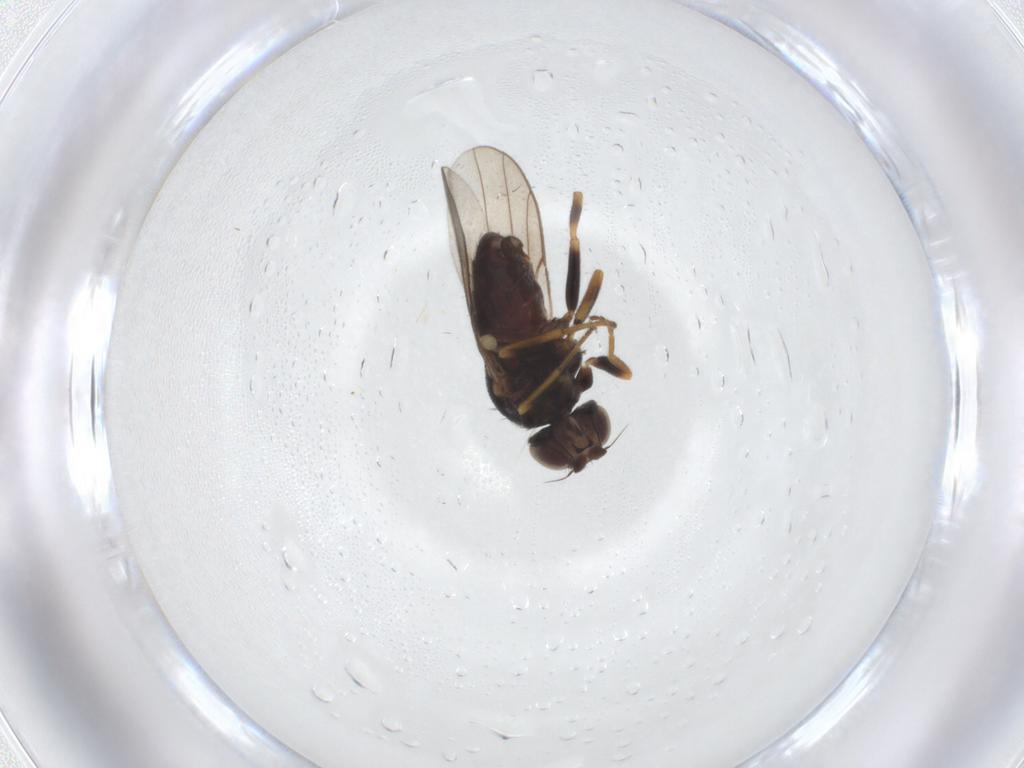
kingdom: Animalia
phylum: Arthropoda
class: Insecta
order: Diptera
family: Chloropidae
